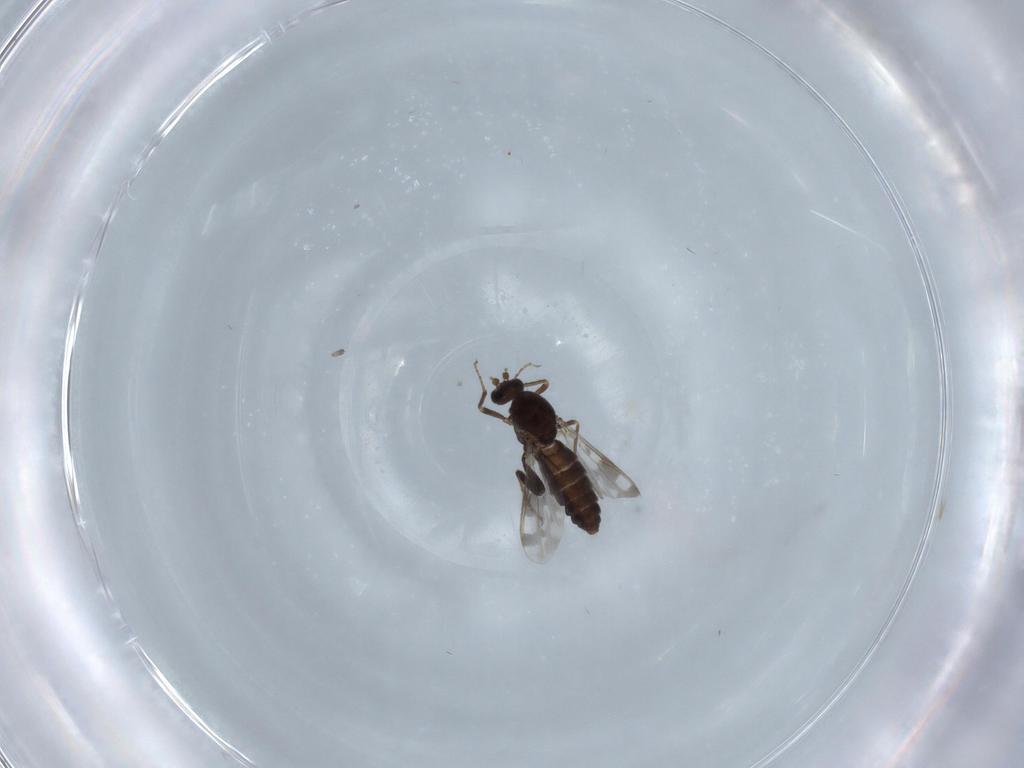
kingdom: Animalia
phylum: Arthropoda
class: Insecta
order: Diptera
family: Ceratopogonidae
